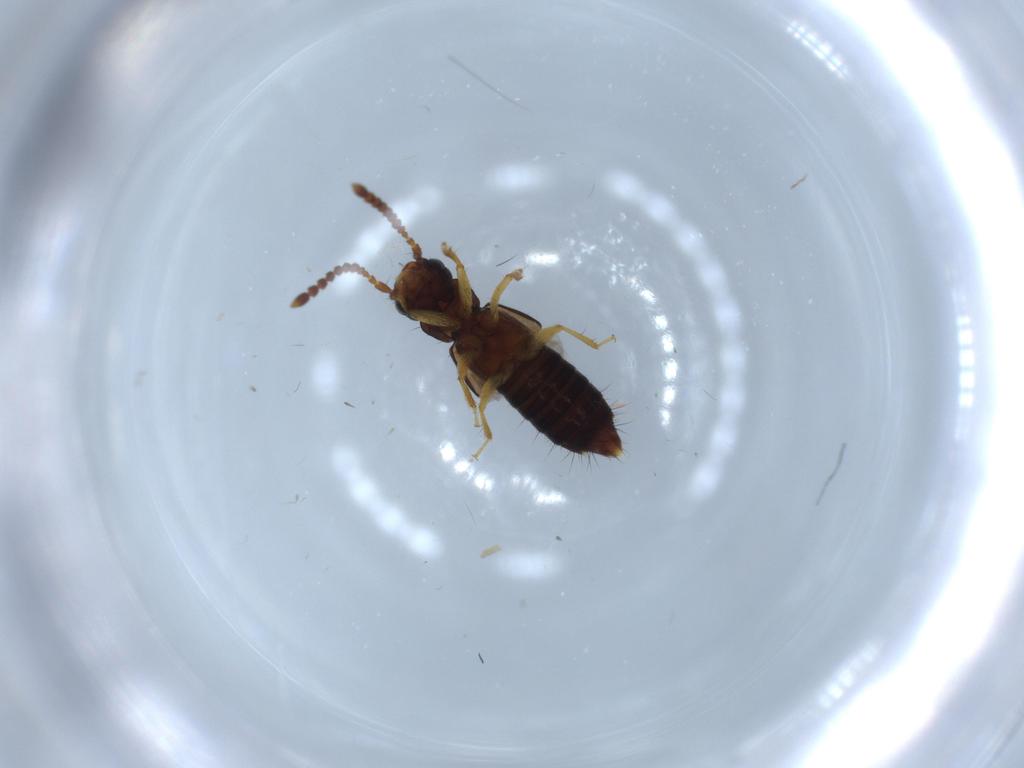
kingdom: Animalia
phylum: Arthropoda
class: Insecta
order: Coleoptera
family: Staphylinidae
